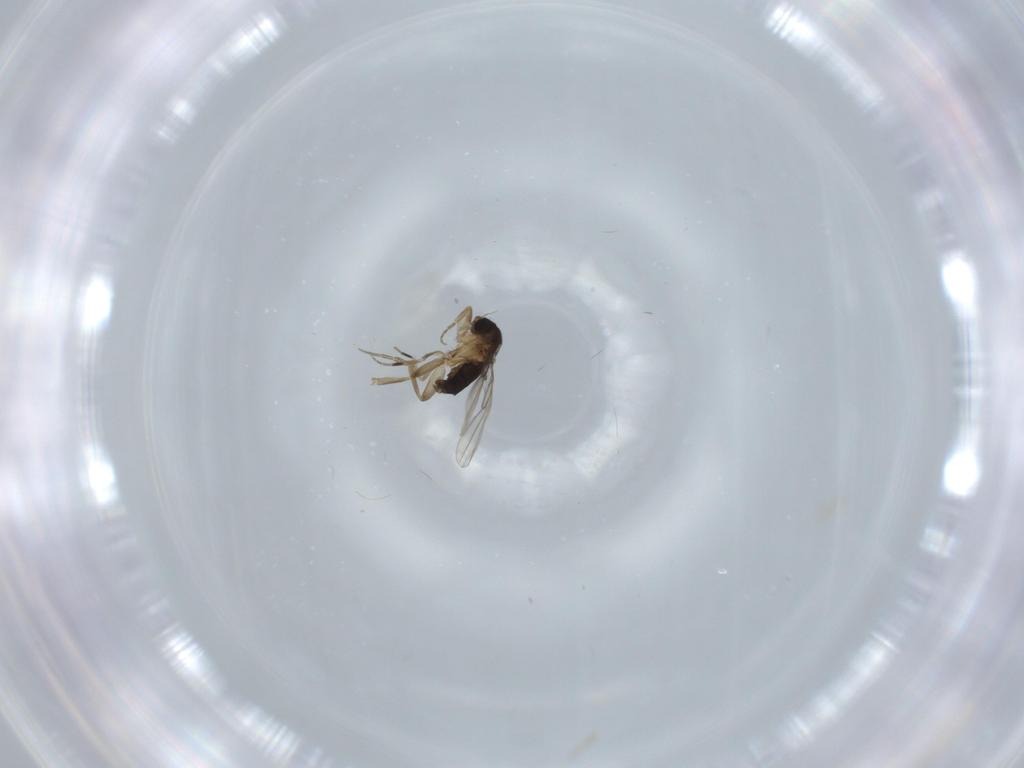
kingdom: Animalia
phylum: Arthropoda
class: Insecta
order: Diptera
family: Phoridae
